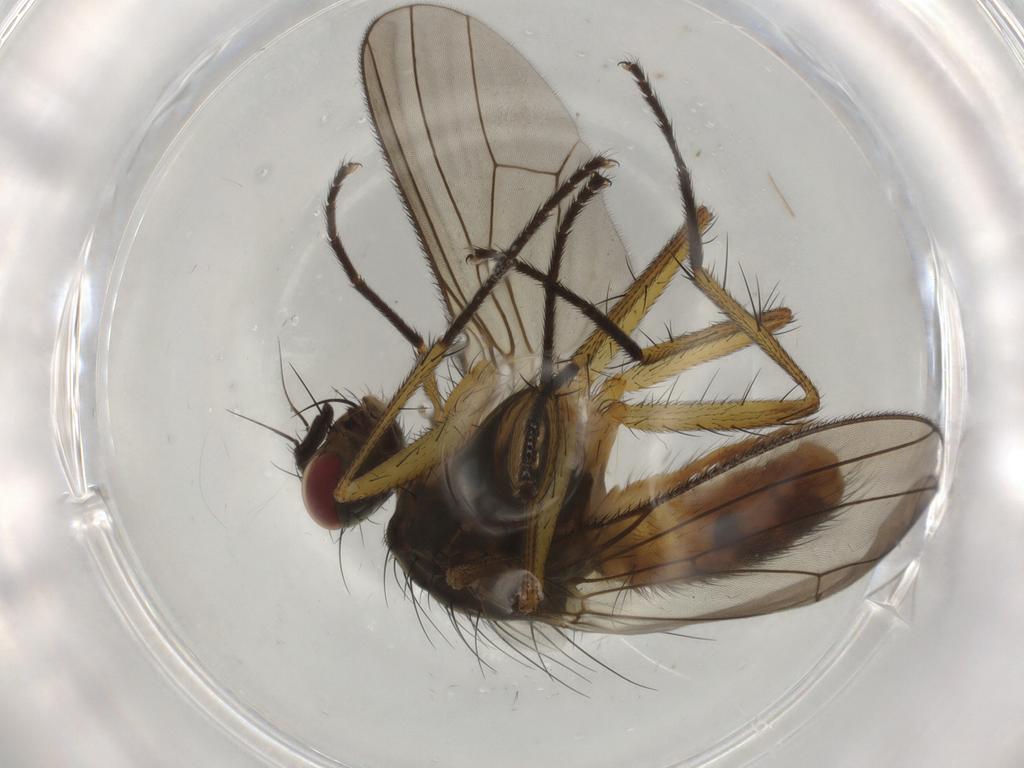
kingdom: Animalia
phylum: Arthropoda
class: Insecta
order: Diptera
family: Muscidae
